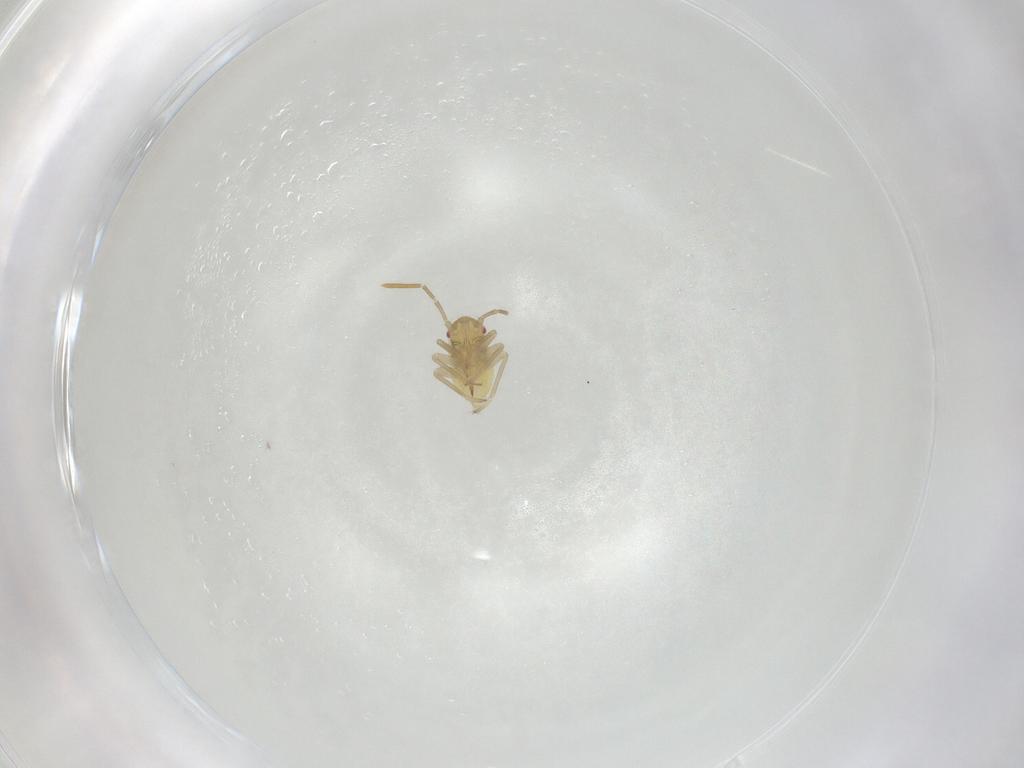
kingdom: Animalia
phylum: Arthropoda
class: Insecta
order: Hemiptera
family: Miridae
